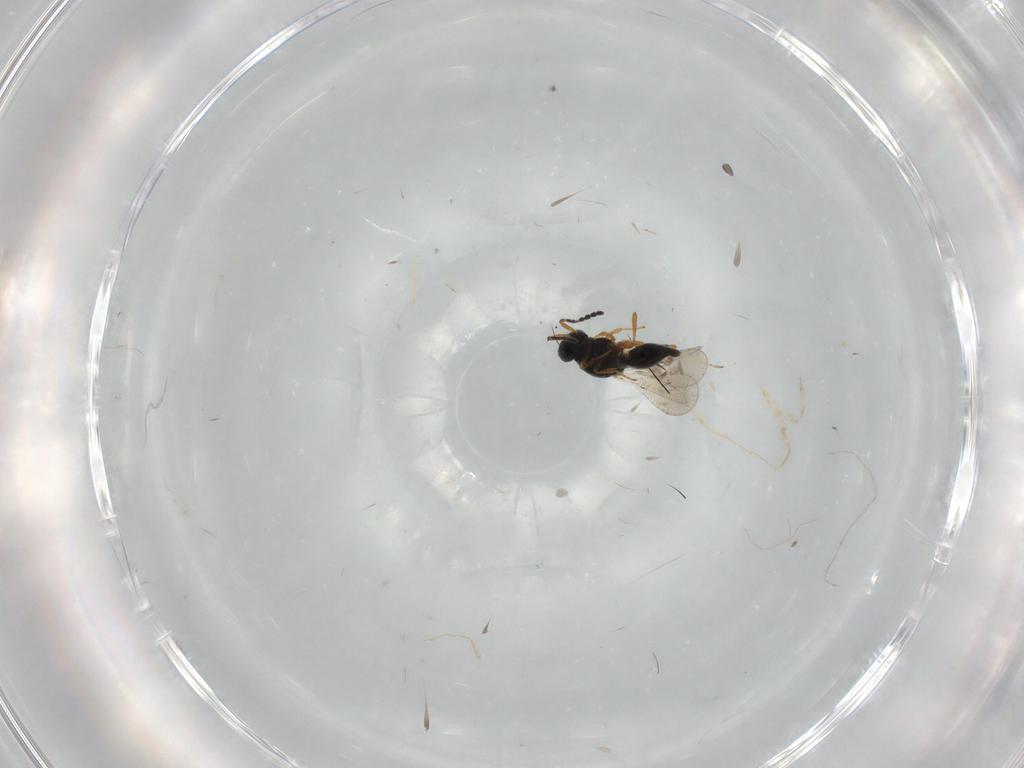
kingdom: Animalia
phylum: Arthropoda
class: Insecta
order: Hymenoptera
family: Platygastridae
